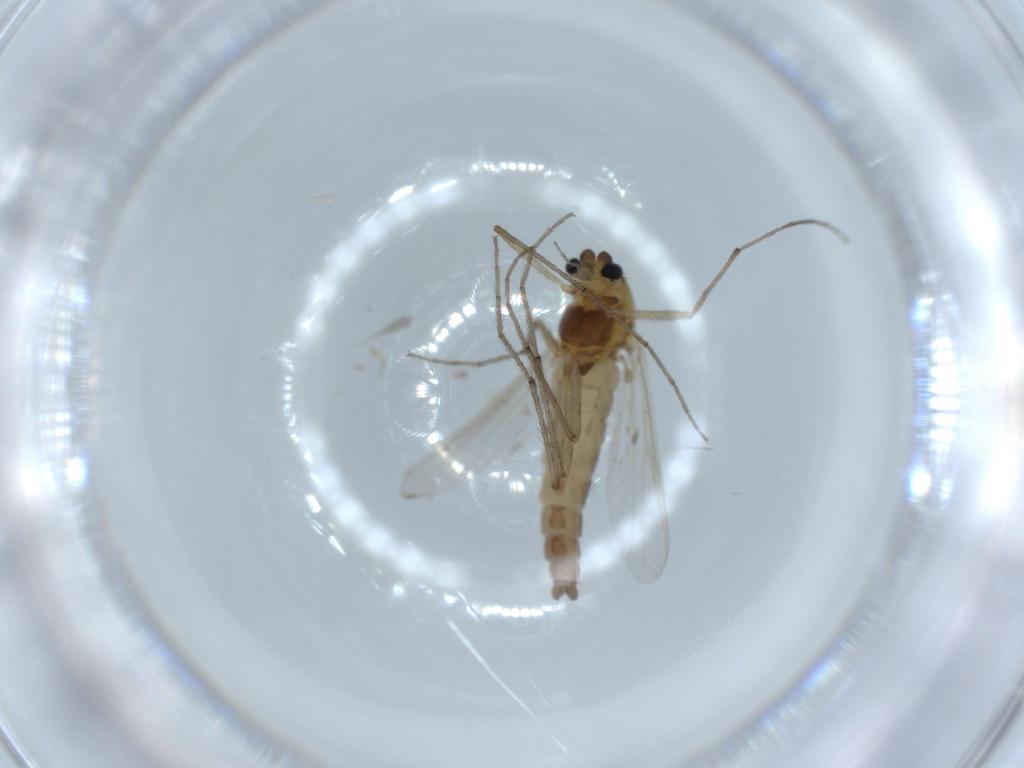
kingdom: Animalia
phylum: Arthropoda
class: Insecta
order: Diptera
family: Chironomidae
